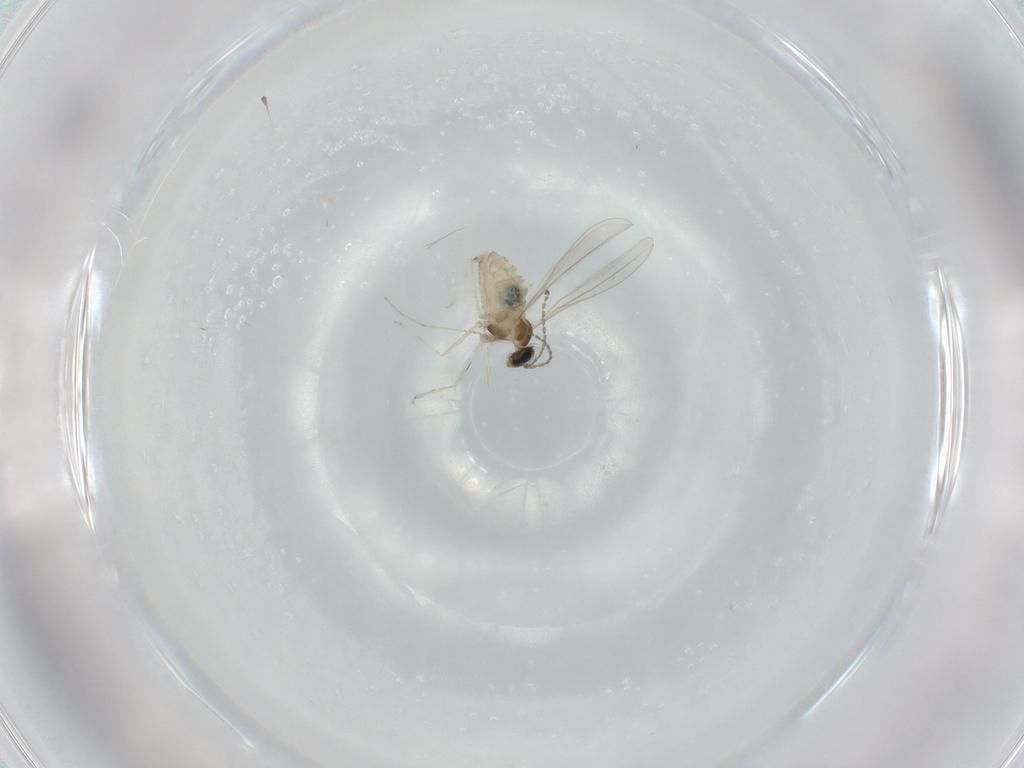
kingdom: Animalia
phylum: Arthropoda
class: Insecta
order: Diptera
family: Cecidomyiidae
